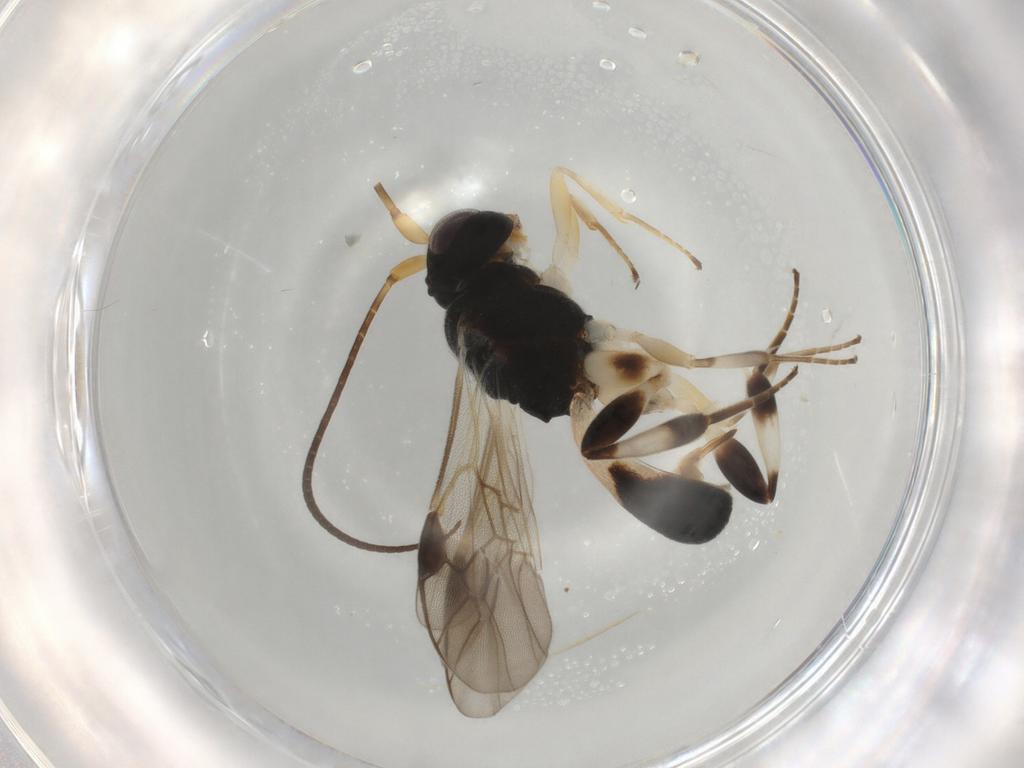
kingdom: Animalia
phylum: Arthropoda
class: Insecta
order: Hymenoptera
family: Braconidae
